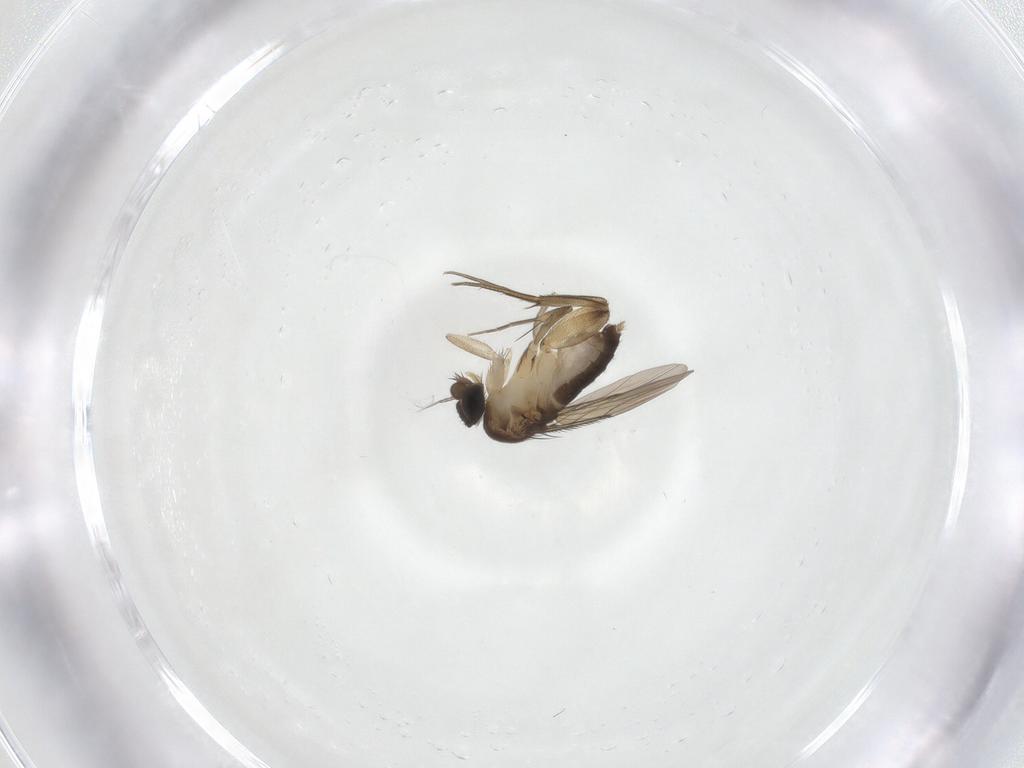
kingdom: Animalia
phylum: Arthropoda
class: Insecta
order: Diptera
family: Phoridae
